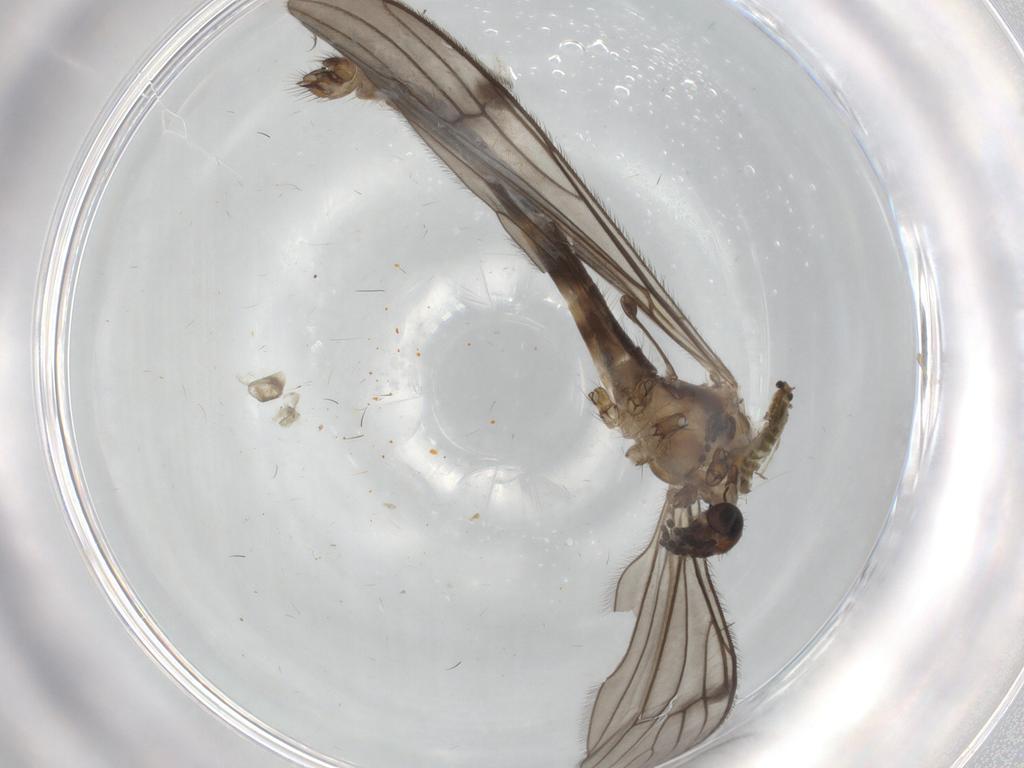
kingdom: Animalia
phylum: Arthropoda
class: Insecta
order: Diptera
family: Cecidomyiidae
